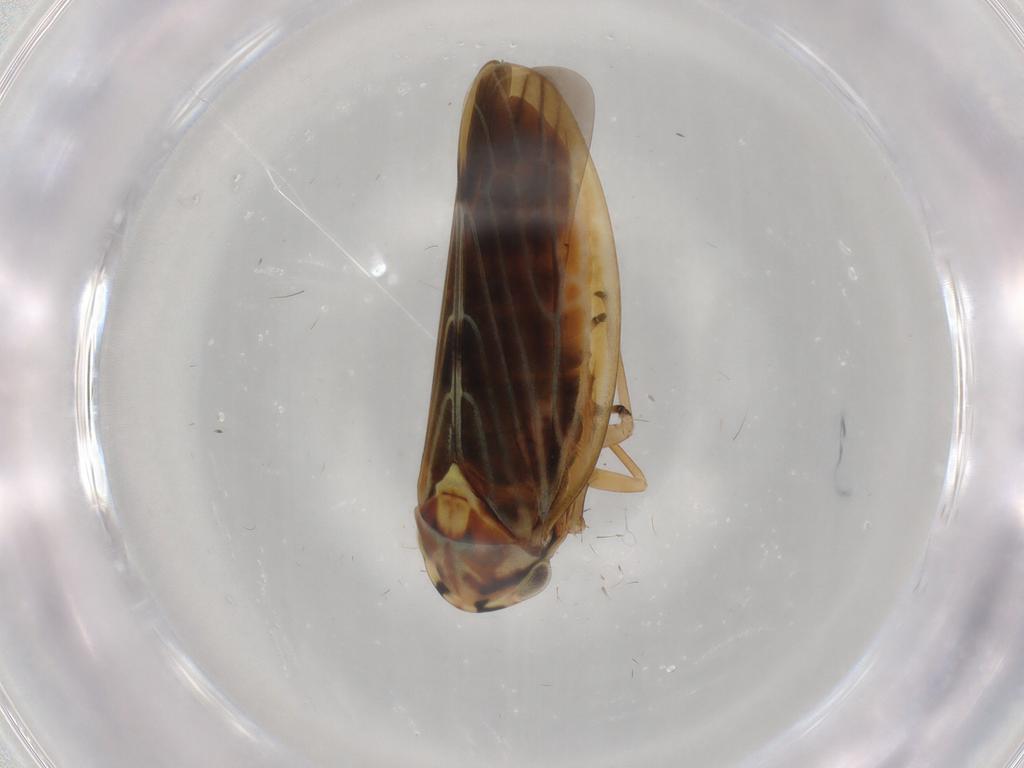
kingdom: Animalia
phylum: Arthropoda
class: Insecta
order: Hemiptera
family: Cicadellidae
